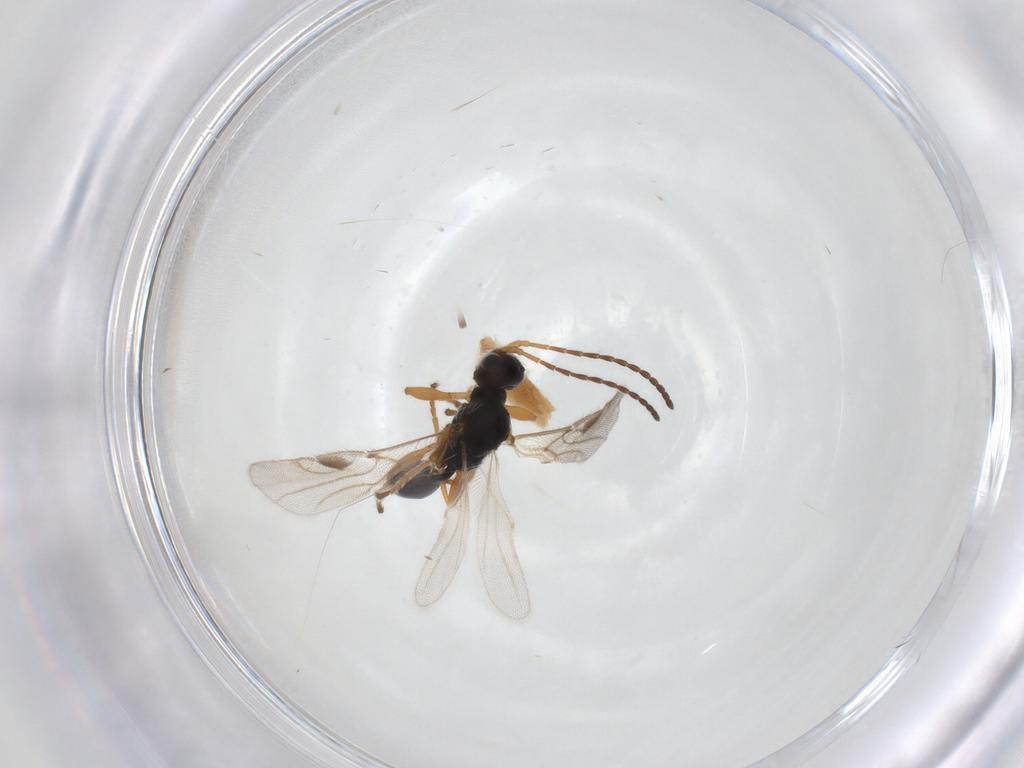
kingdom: Animalia
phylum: Arthropoda
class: Insecta
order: Hymenoptera
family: Braconidae
